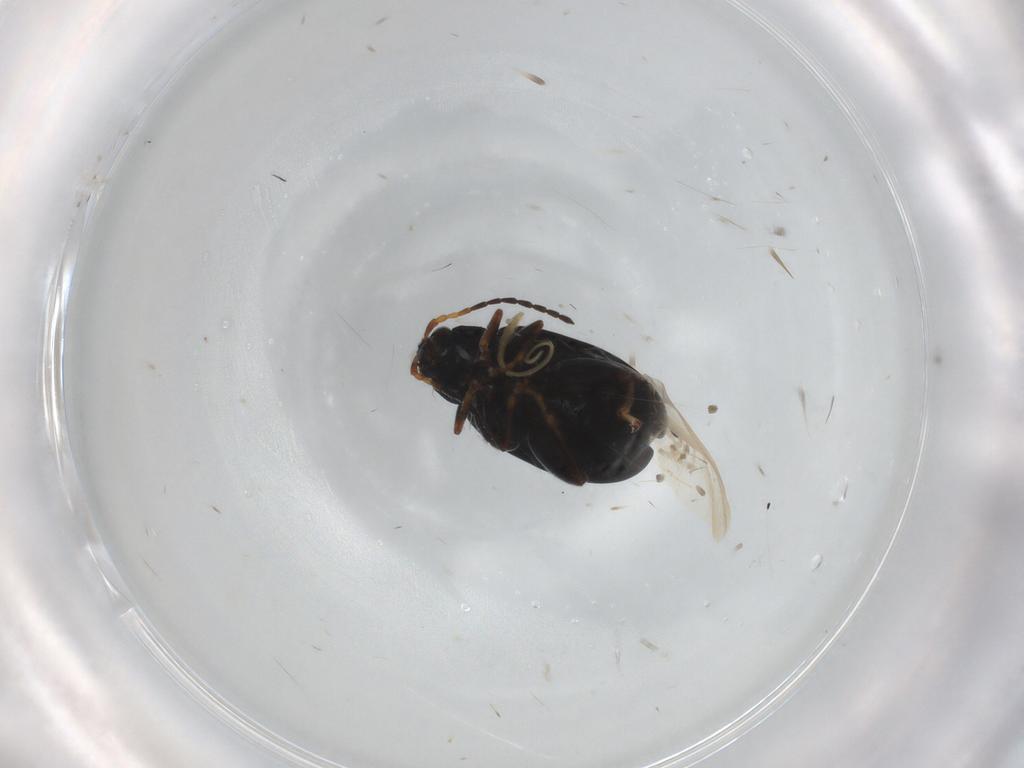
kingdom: Animalia
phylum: Arthropoda
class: Insecta
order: Coleoptera
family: Chrysomelidae
